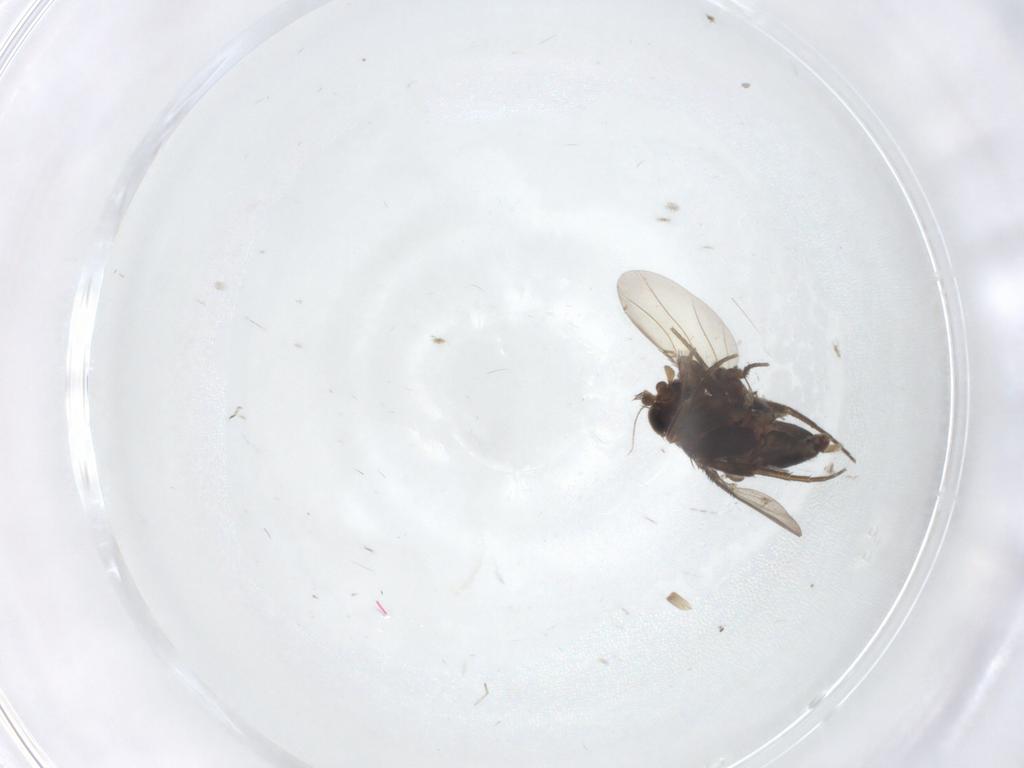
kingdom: Animalia
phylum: Arthropoda
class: Insecta
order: Diptera
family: Phoridae
